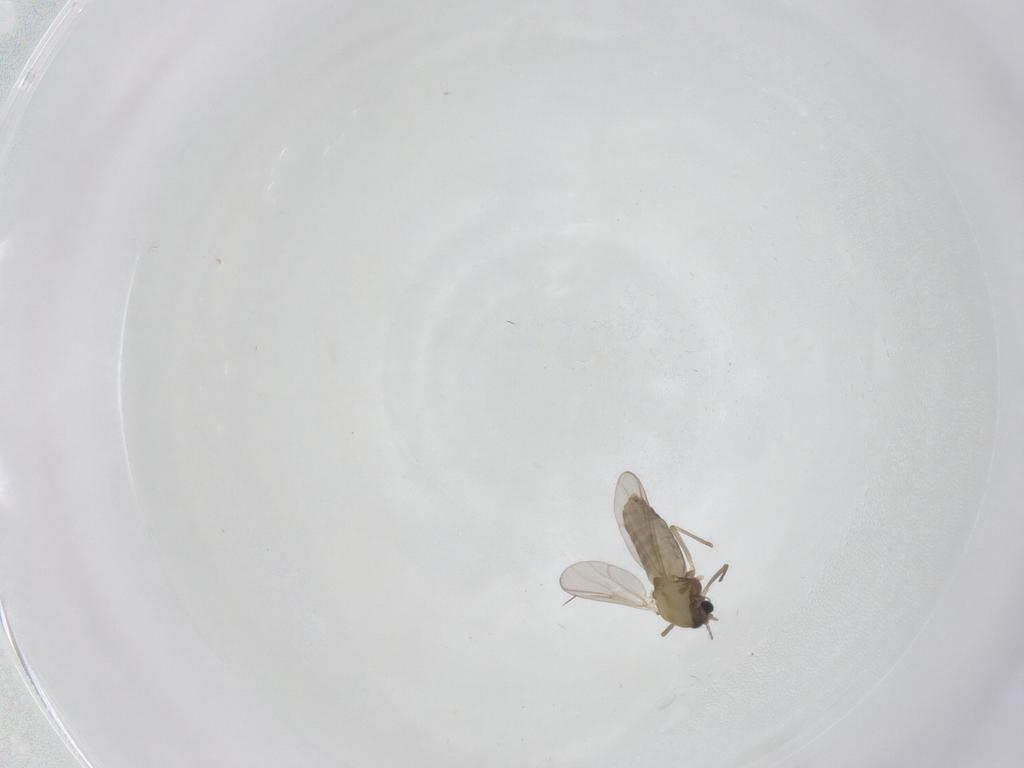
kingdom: Animalia
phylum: Arthropoda
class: Insecta
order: Diptera
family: Chironomidae
